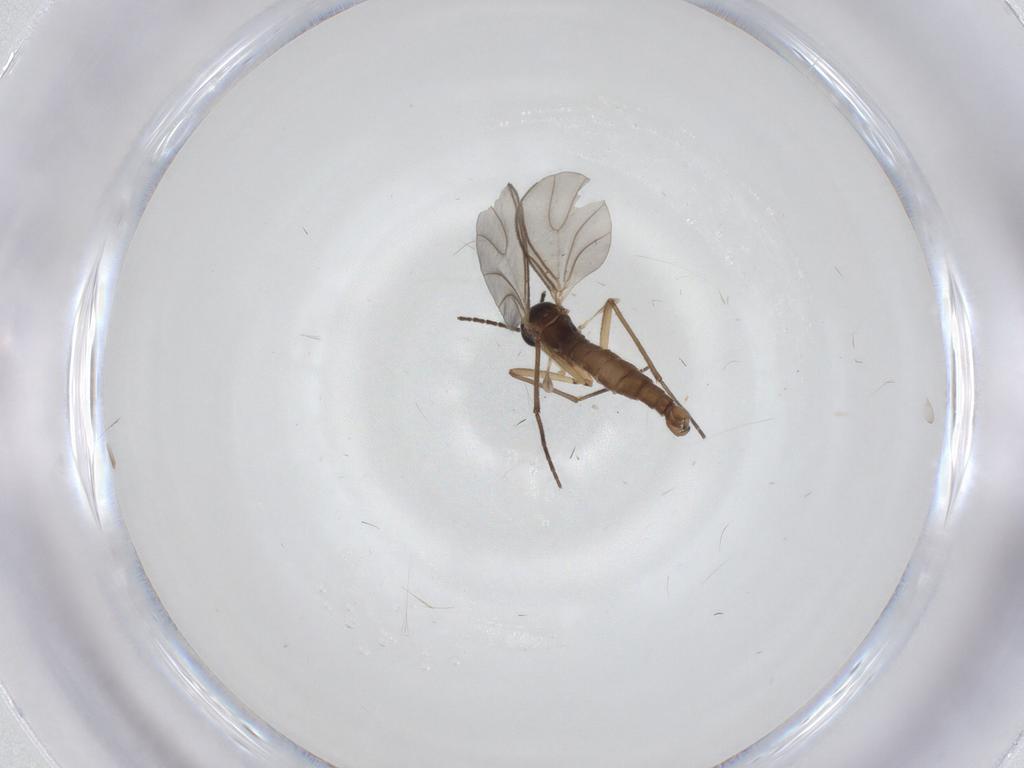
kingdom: Animalia
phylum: Arthropoda
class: Insecta
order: Diptera
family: Sciaridae
